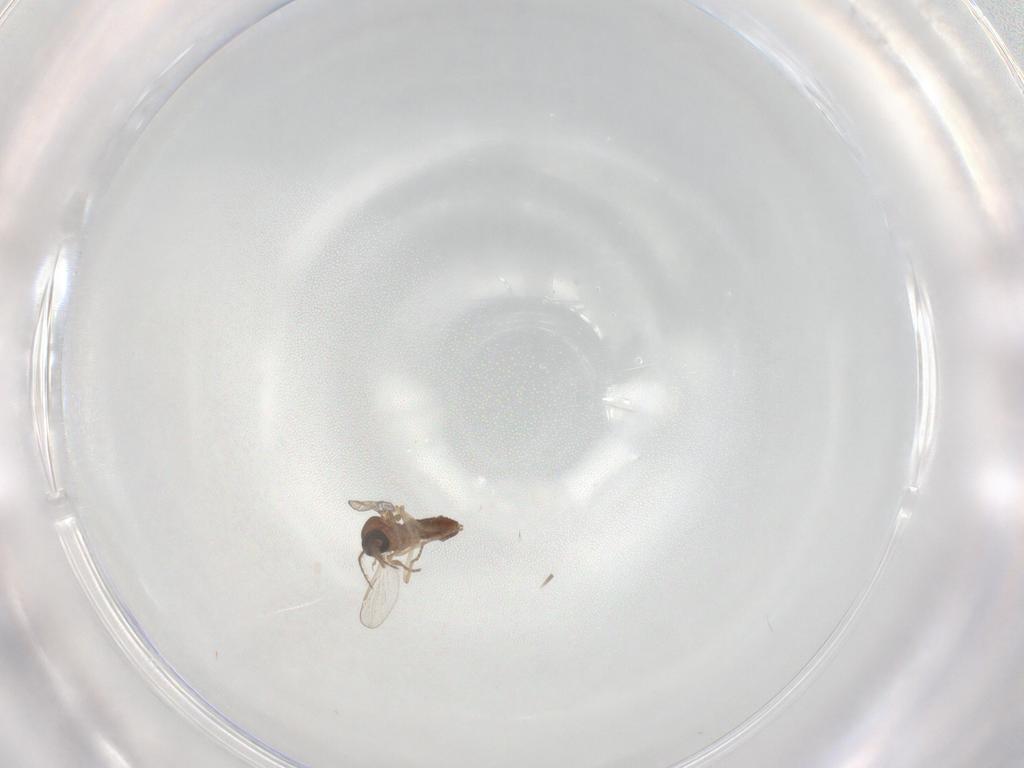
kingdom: Animalia
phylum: Arthropoda
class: Insecta
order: Diptera
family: Ceratopogonidae
